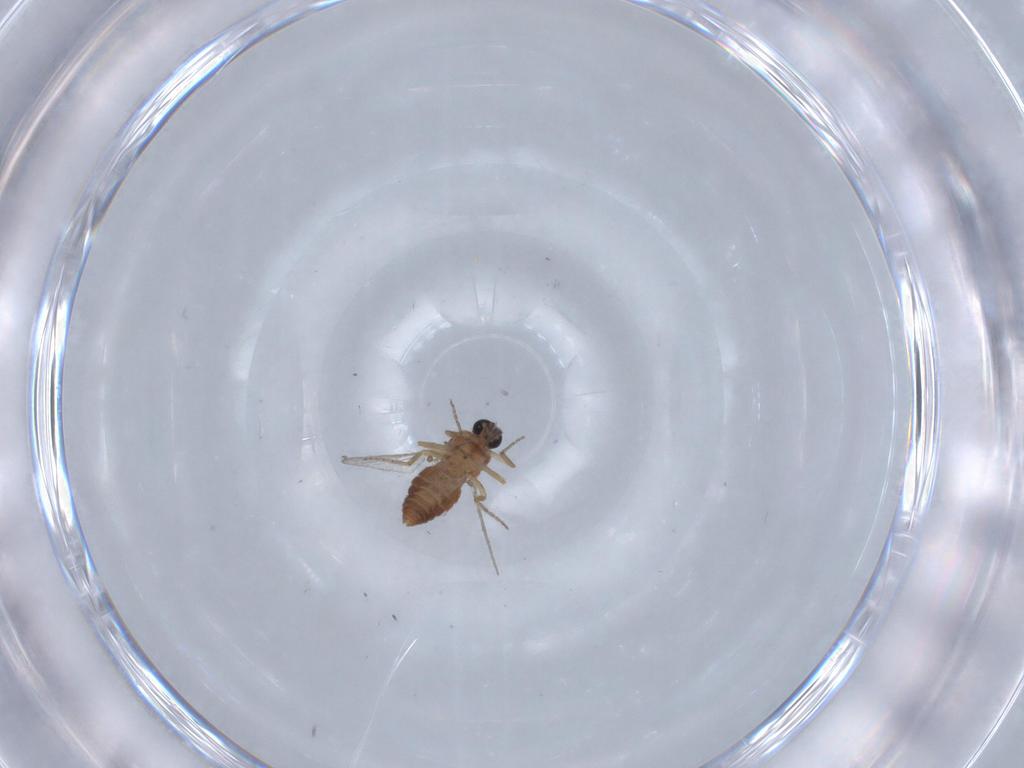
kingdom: Animalia
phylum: Arthropoda
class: Insecta
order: Diptera
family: Ceratopogonidae
